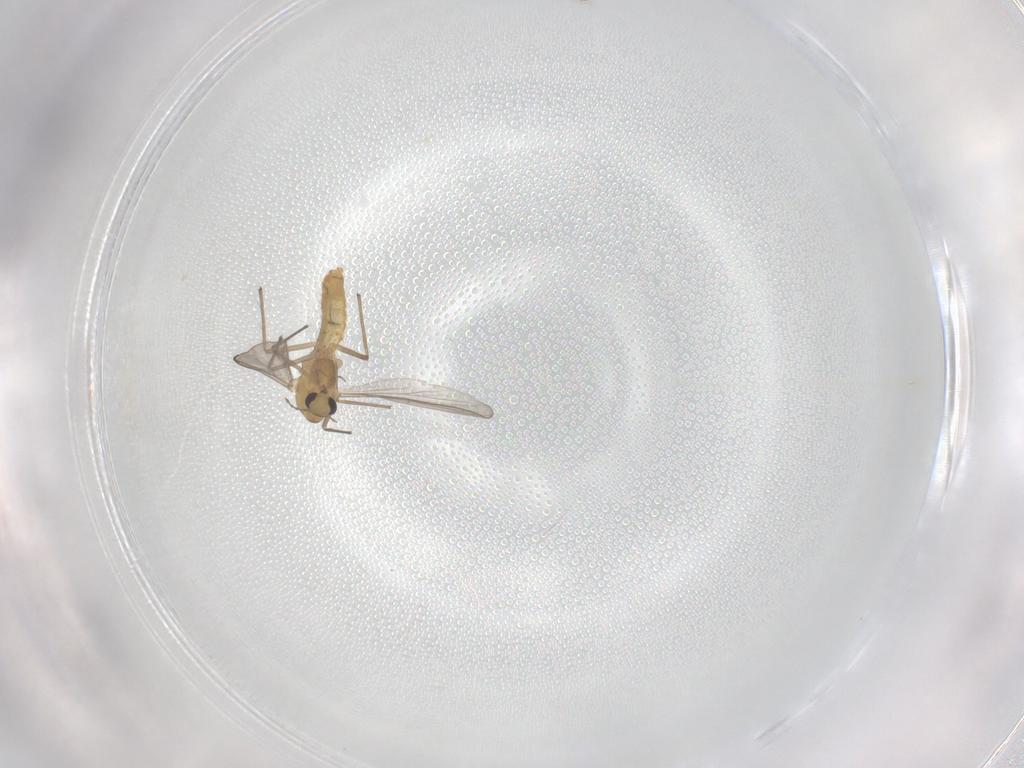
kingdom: Animalia
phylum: Arthropoda
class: Insecta
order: Diptera
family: Chironomidae
